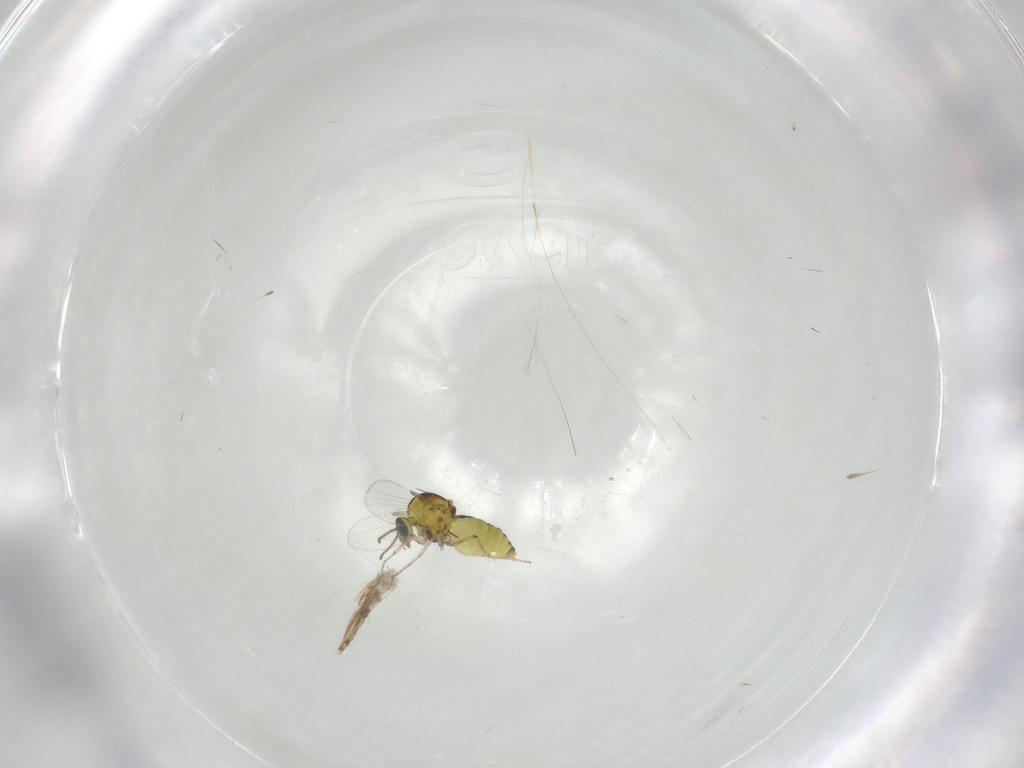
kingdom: Animalia
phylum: Arthropoda
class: Insecta
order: Diptera
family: Ceratopogonidae
